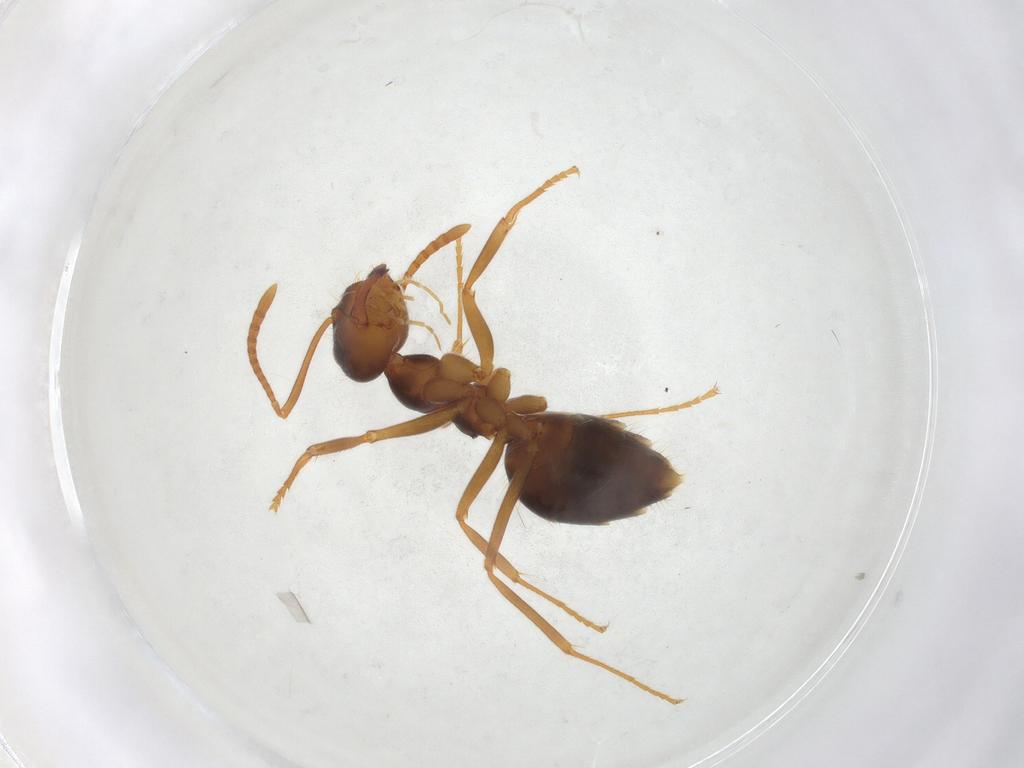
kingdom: Animalia
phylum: Arthropoda
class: Insecta
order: Hymenoptera
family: Formicidae
